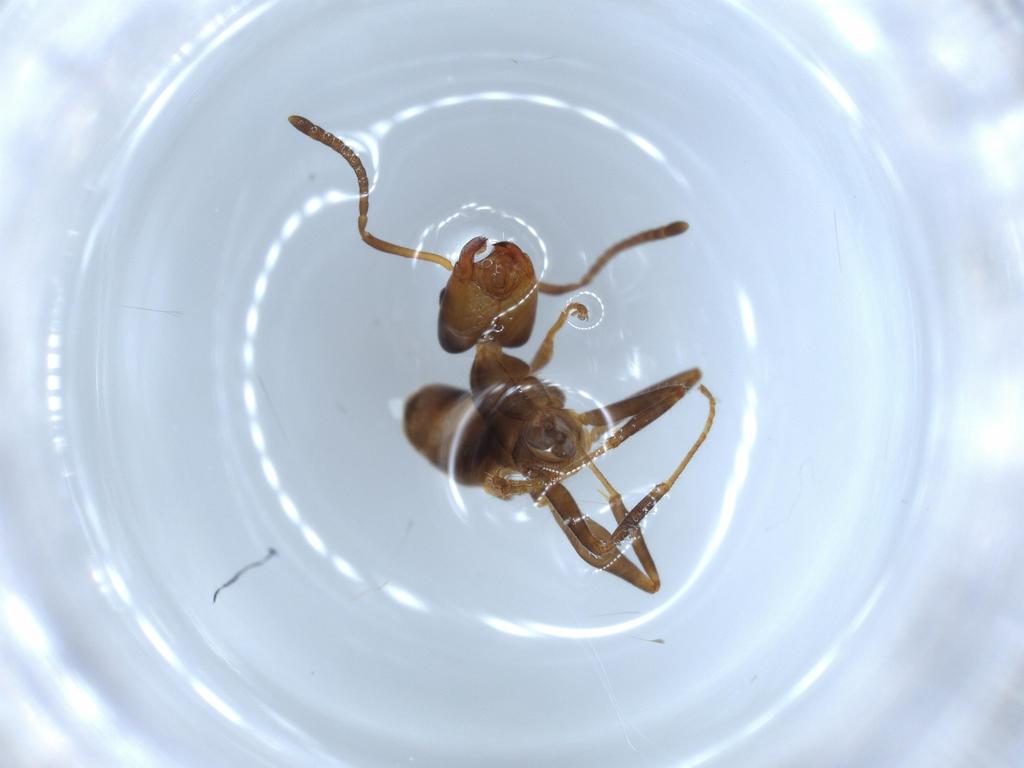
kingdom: Animalia
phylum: Arthropoda
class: Insecta
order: Hymenoptera
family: Formicidae
